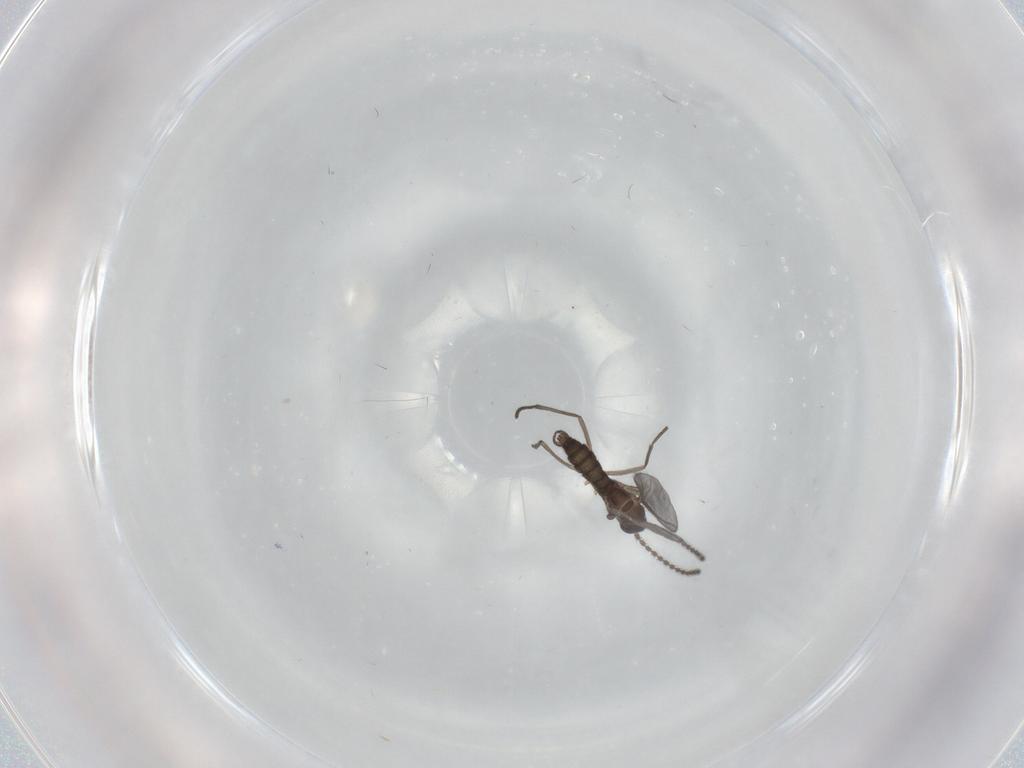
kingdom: Animalia
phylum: Arthropoda
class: Insecta
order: Diptera
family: Psychodidae
